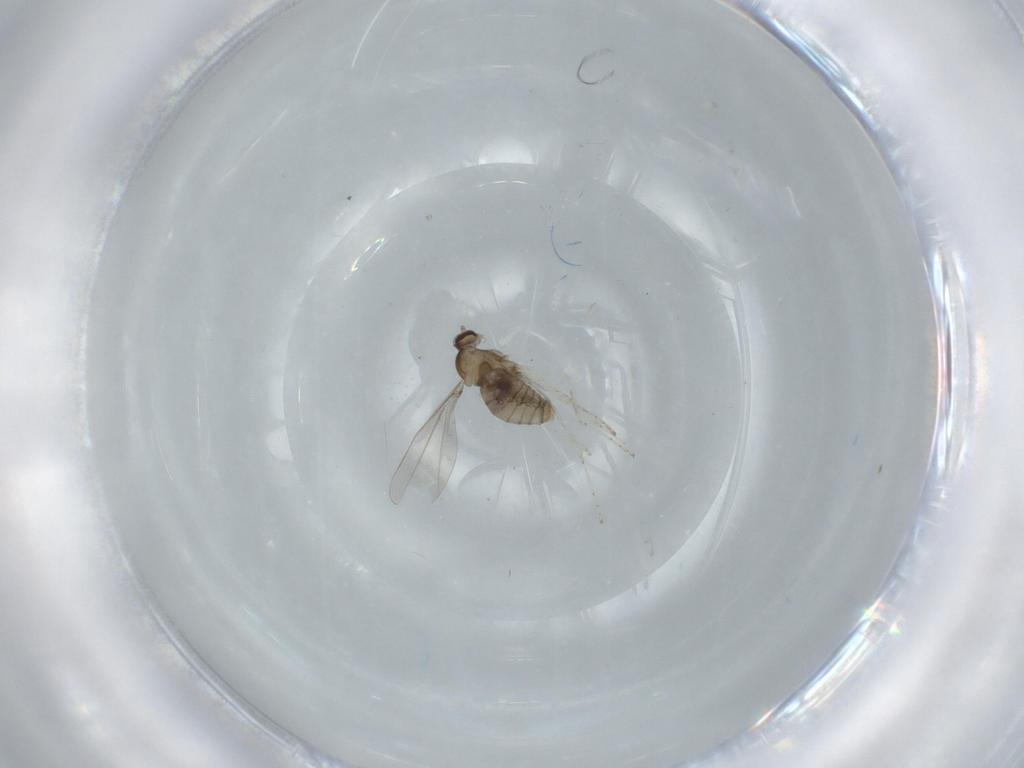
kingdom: Animalia
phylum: Arthropoda
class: Insecta
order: Diptera
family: Cecidomyiidae
